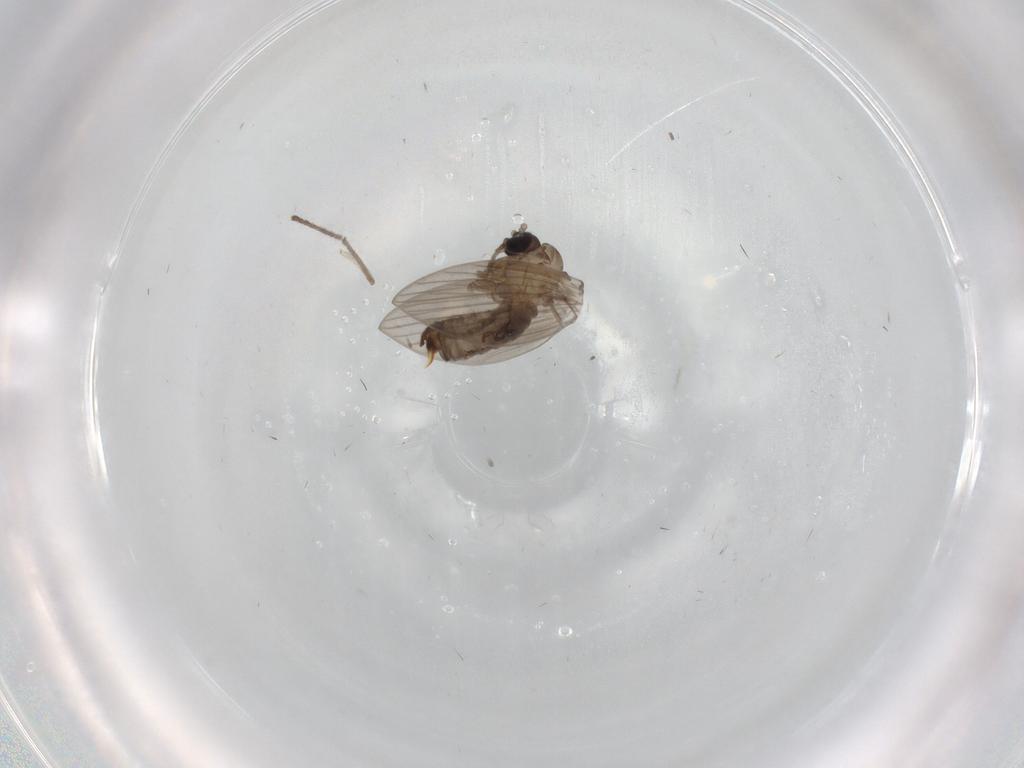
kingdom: Animalia
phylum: Arthropoda
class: Insecta
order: Diptera
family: Psychodidae
